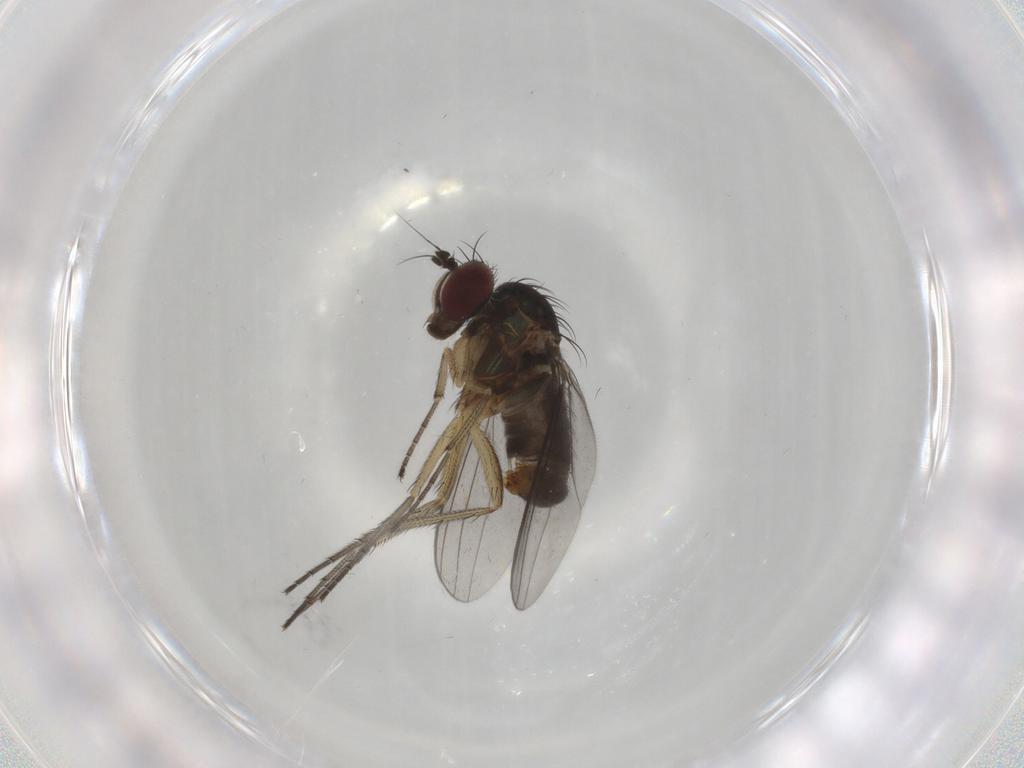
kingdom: Animalia
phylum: Arthropoda
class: Insecta
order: Diptera
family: Dolichopodidae
